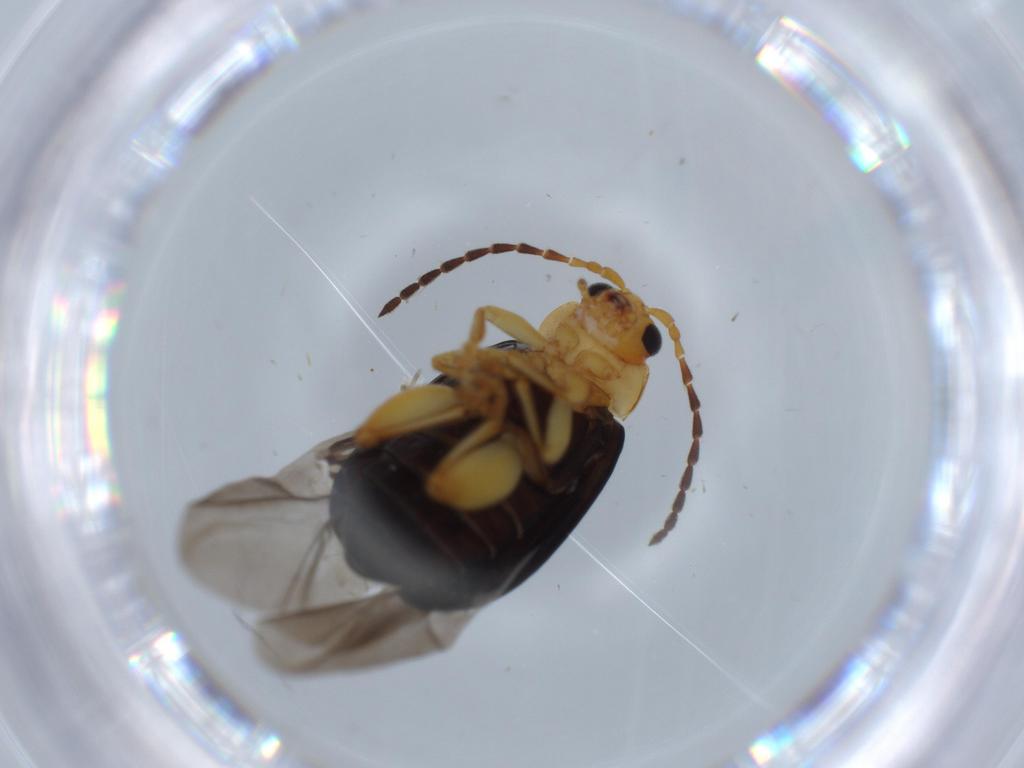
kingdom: Animalia
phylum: Arthropoda
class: Insecta
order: Coleoptera
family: Chrysomelidae
